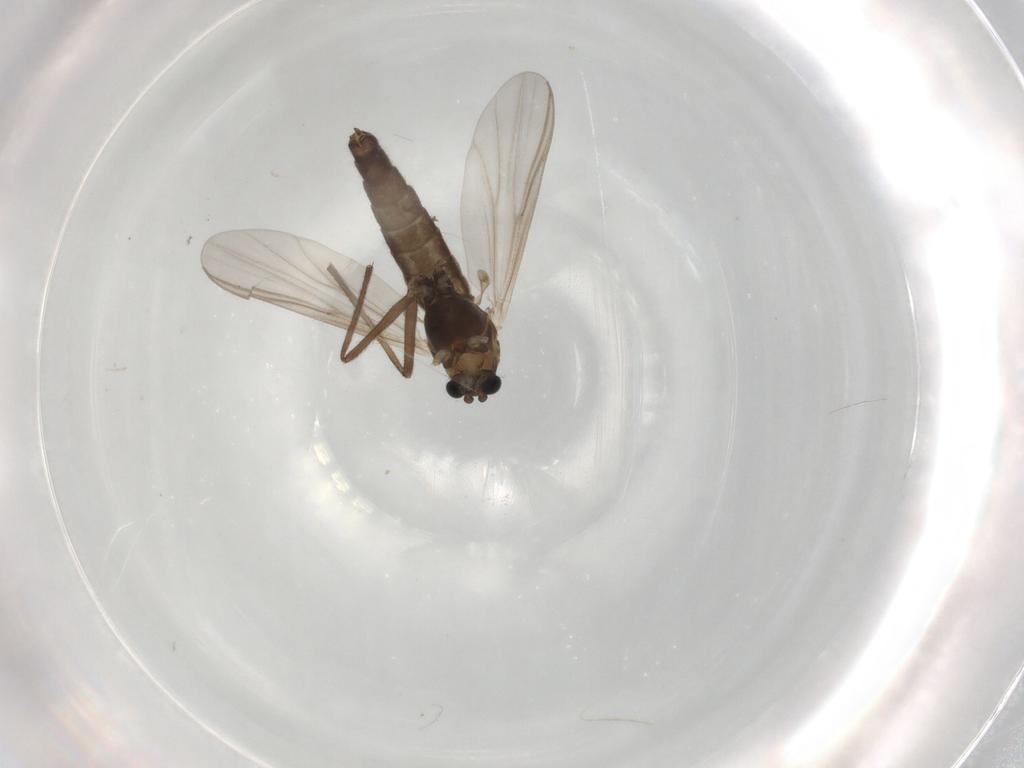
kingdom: Animalia
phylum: Arthropoda
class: Insecta
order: Diptera
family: Chironomidae
